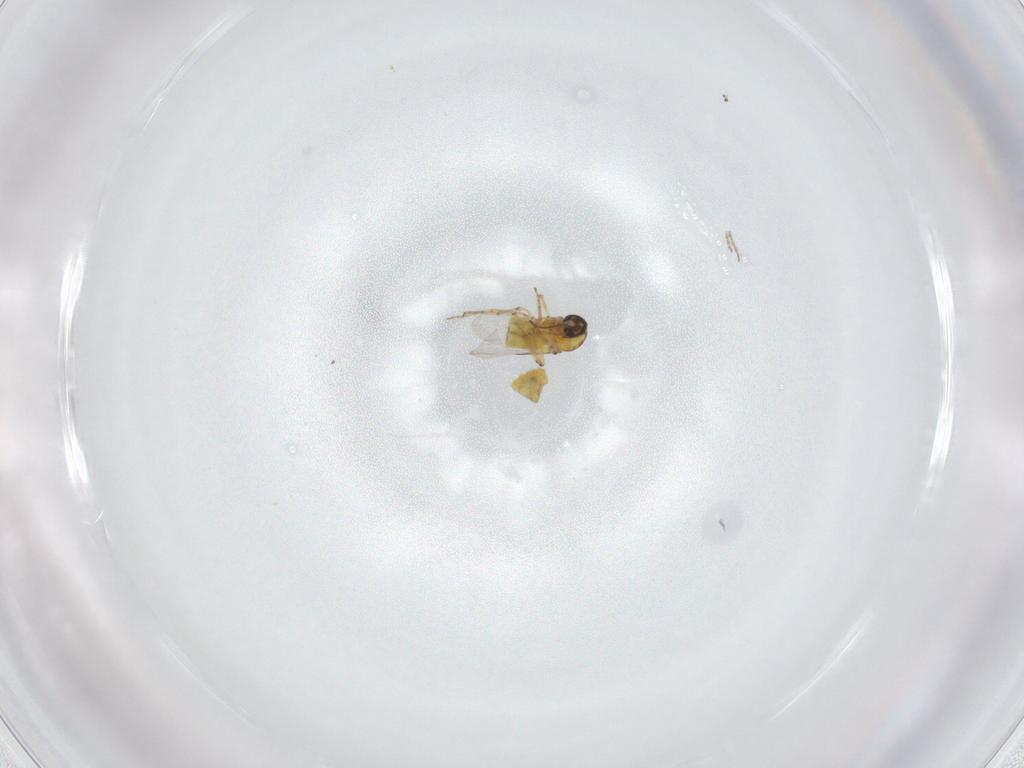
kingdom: Animalia
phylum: Arthropoda
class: Insecta
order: Diptera
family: Ceratopogonidae
